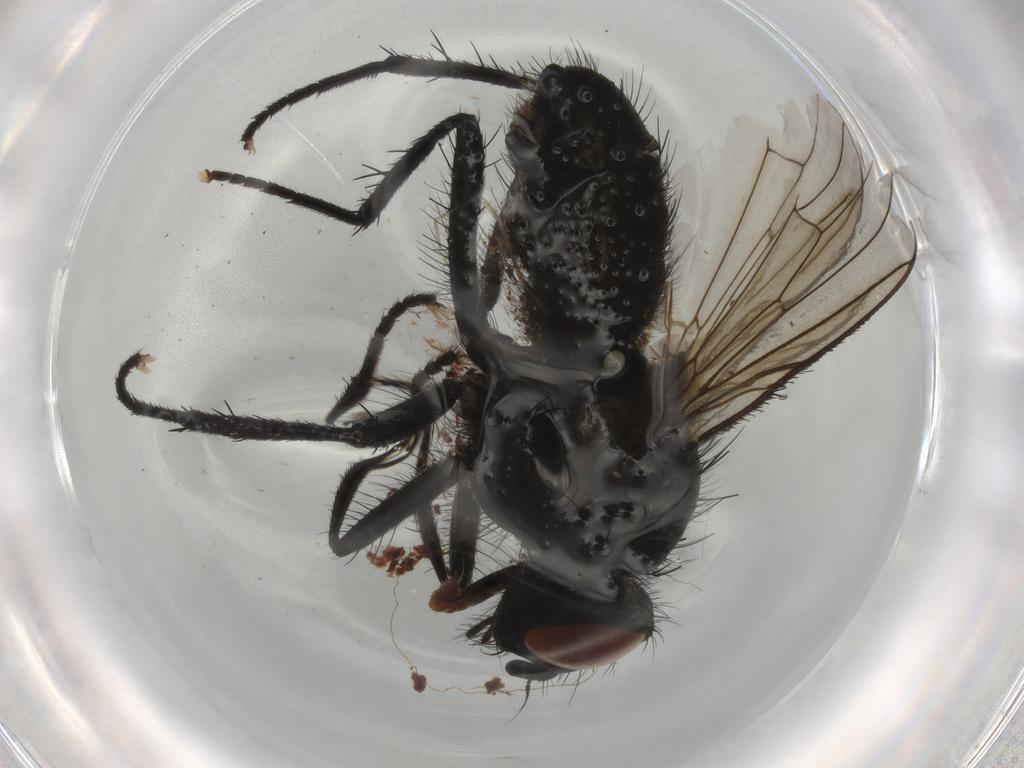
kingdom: Animalia
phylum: Arthropoda
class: Insecta
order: Diptera
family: Chironomidae
